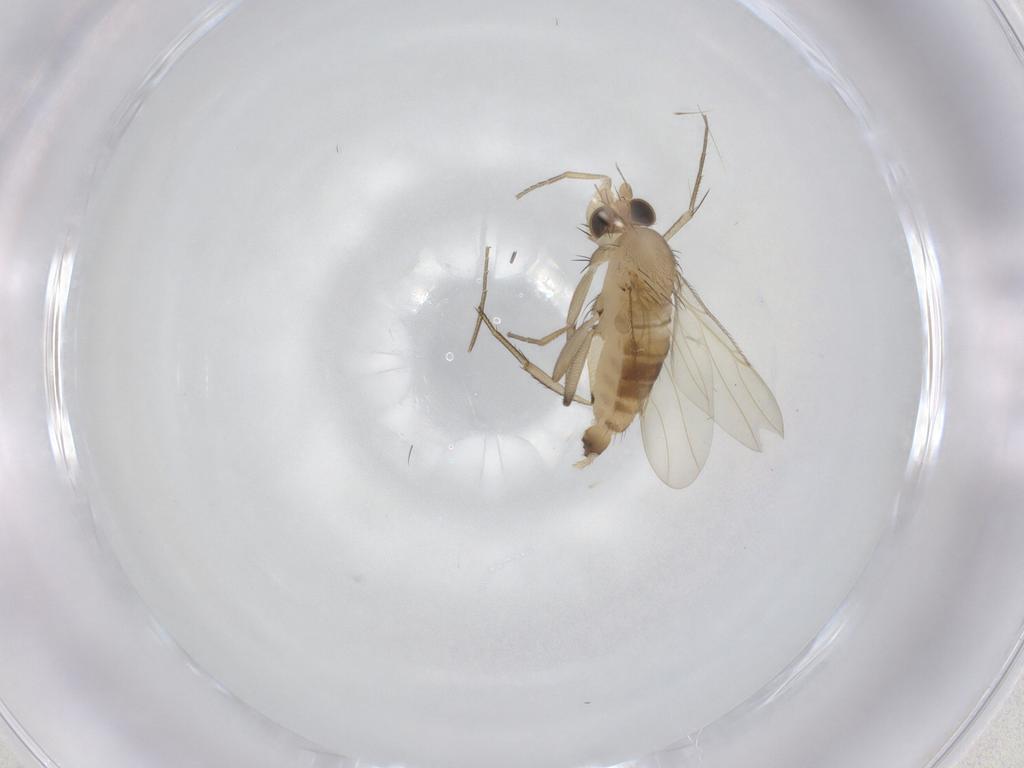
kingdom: Animalia
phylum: Arthropoda
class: Insecta
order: Diptera
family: Phoridae
